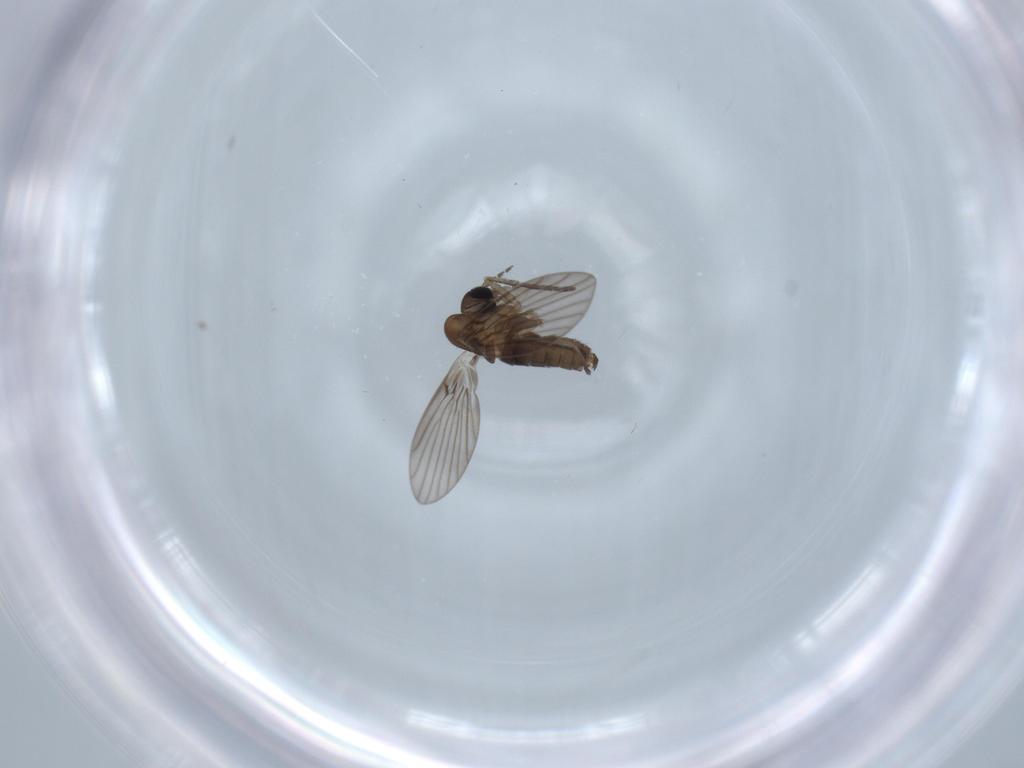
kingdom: Animalia
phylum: Arthropoda
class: Insecta
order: Diptera
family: Psychodidae
